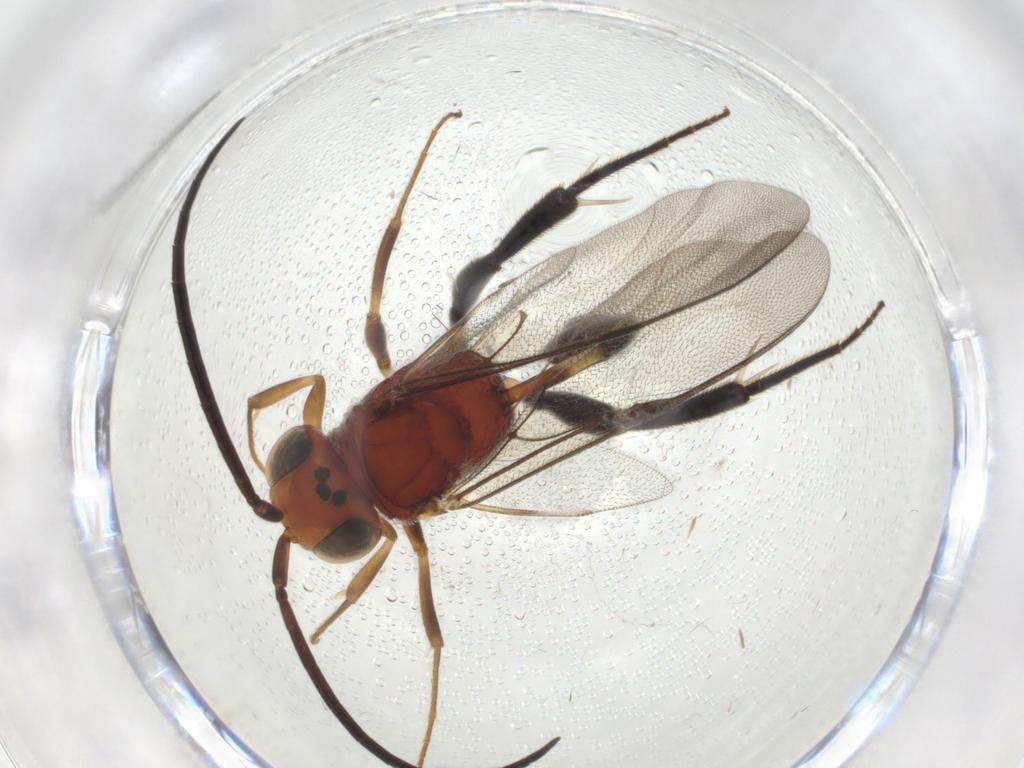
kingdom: Animalia
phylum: Arthropoda
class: Insecta
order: Hymenoptera
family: Evaniidae
